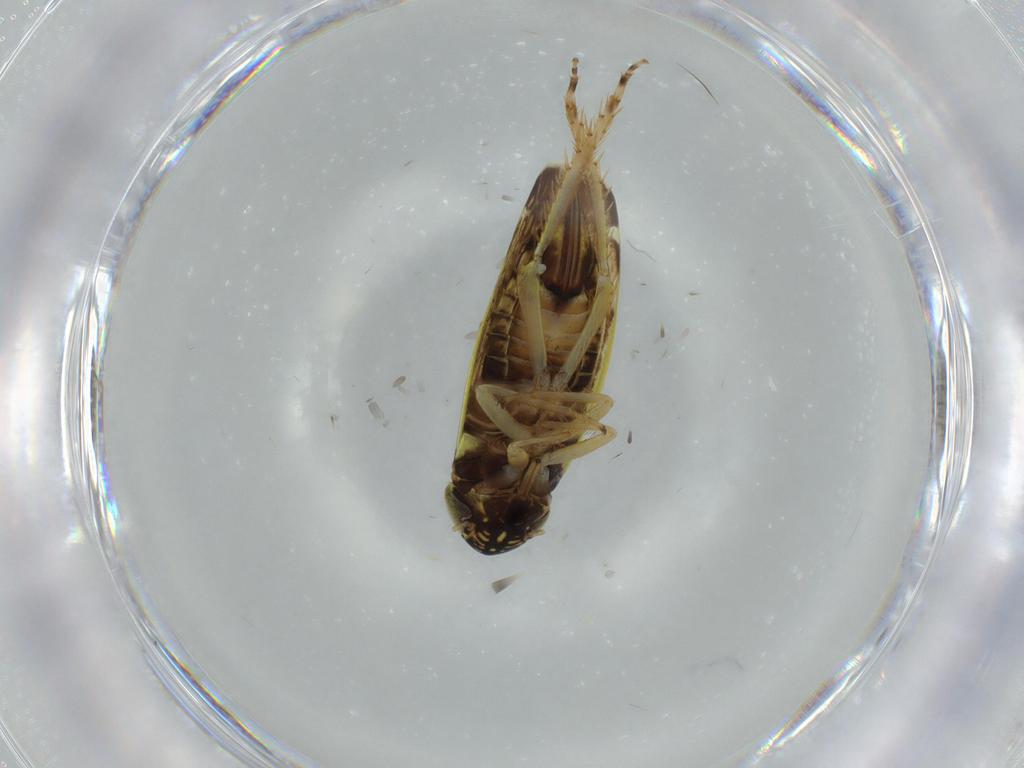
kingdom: Animalia
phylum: Arthropoda
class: Insecta
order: Hemiptera
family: Cicadellidae
